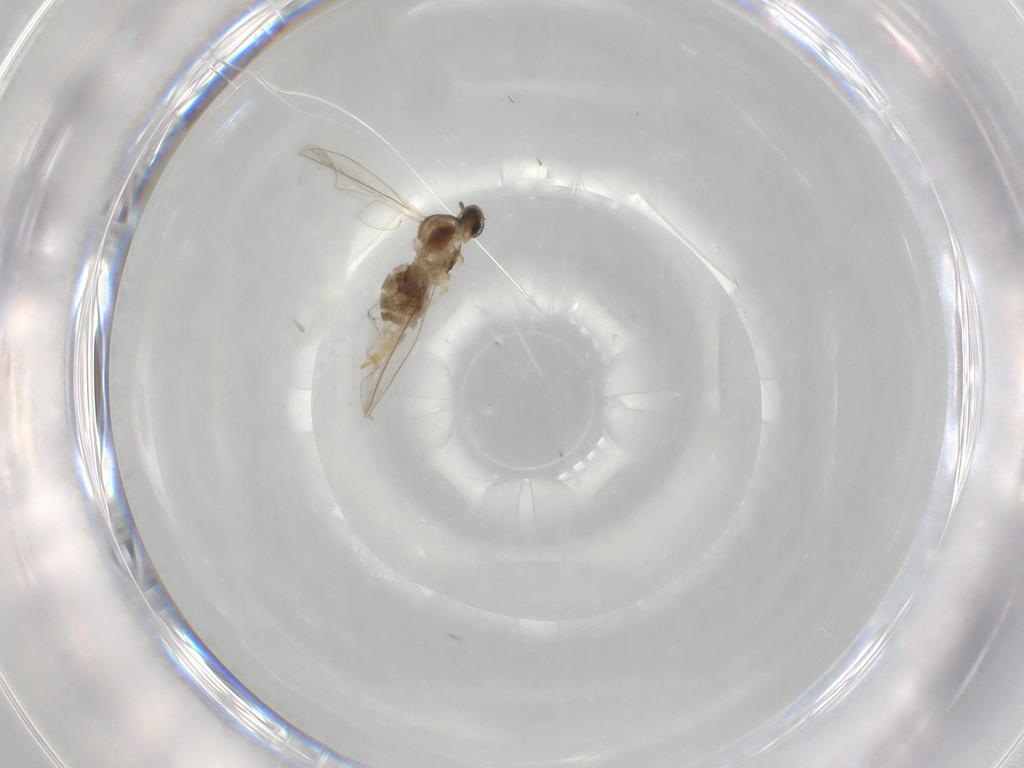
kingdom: Animalia
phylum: Arthropoda
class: Insecta
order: Diptera
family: Cecidomyiidae
